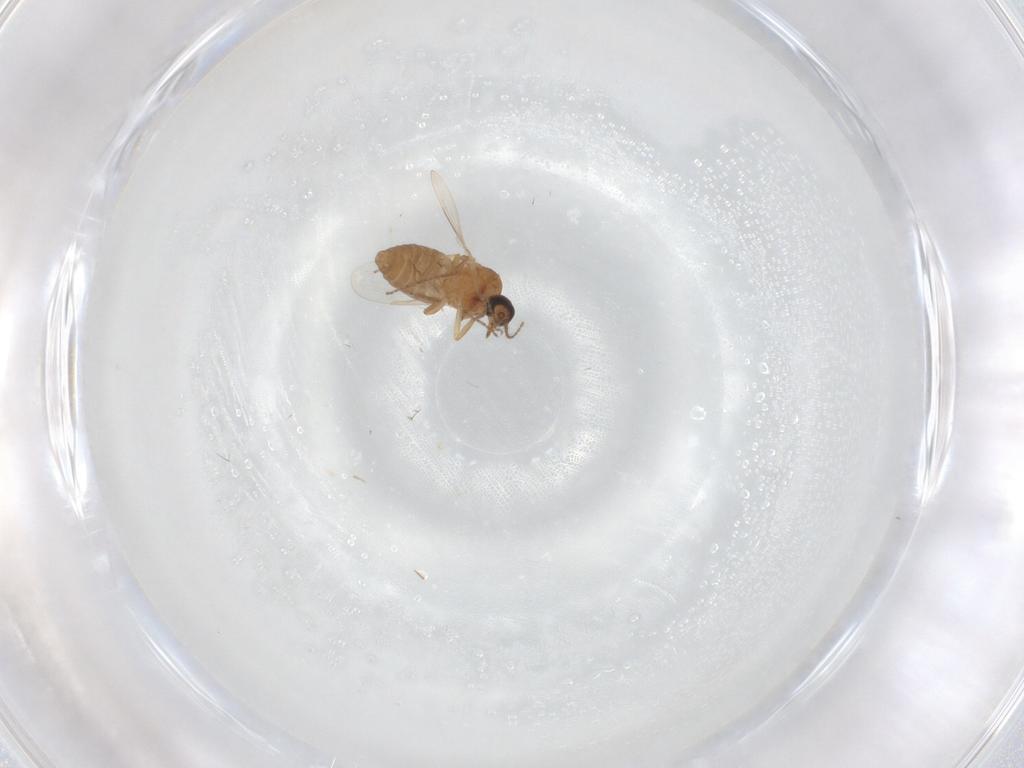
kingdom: Animalia
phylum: Arthropoda
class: Insecta
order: Diptera
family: Ceratopogonidae
